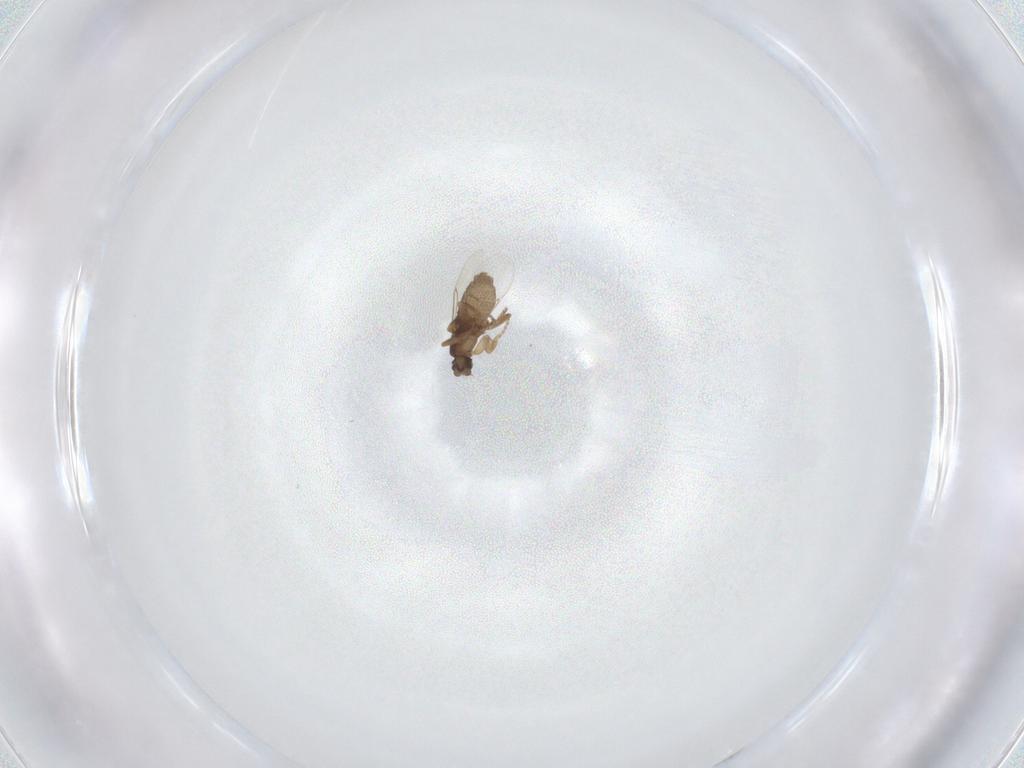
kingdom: Animalia
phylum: Arthropoda
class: Insecta
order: Diptera
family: Phoridae
